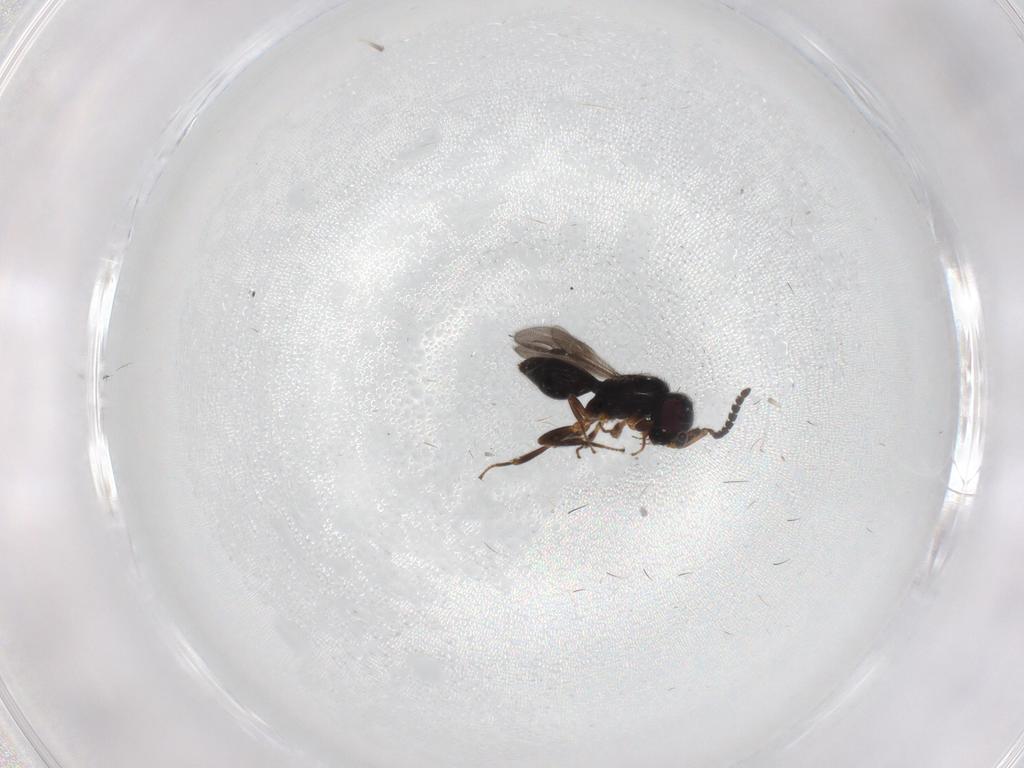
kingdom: Animalia
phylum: Arthropoda
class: Insecta
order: Hymenoptera
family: Megaspilidae
